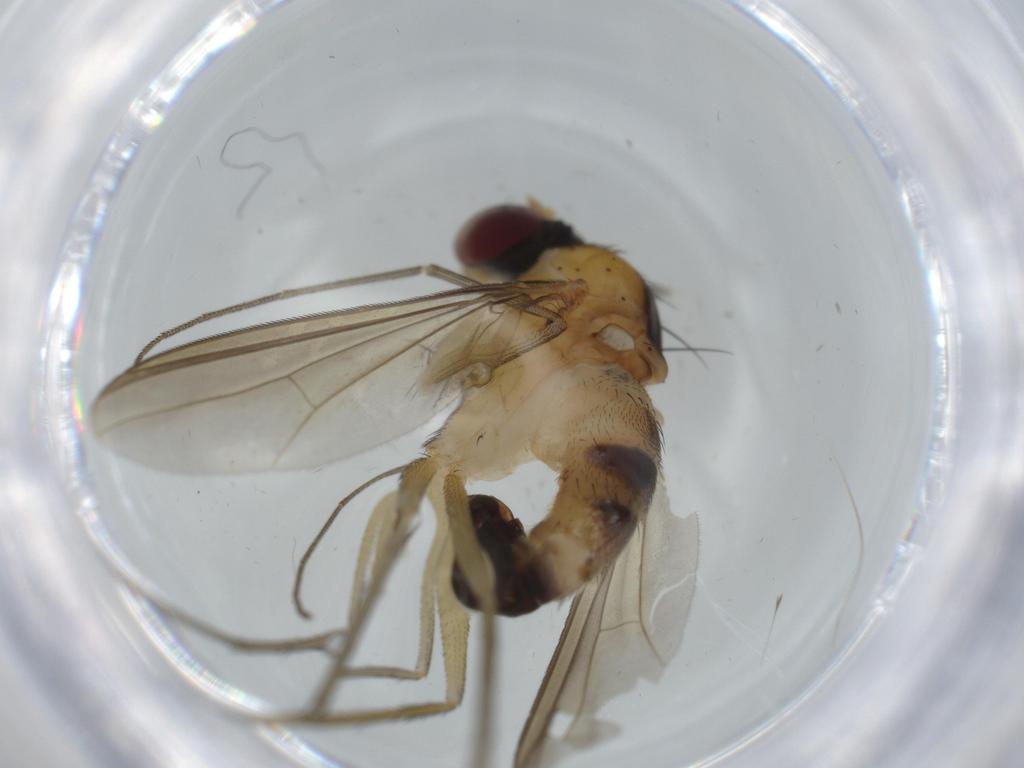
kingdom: Animalia
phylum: Arthropoda
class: Insecta
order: Diptera
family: Dolichopodidae
